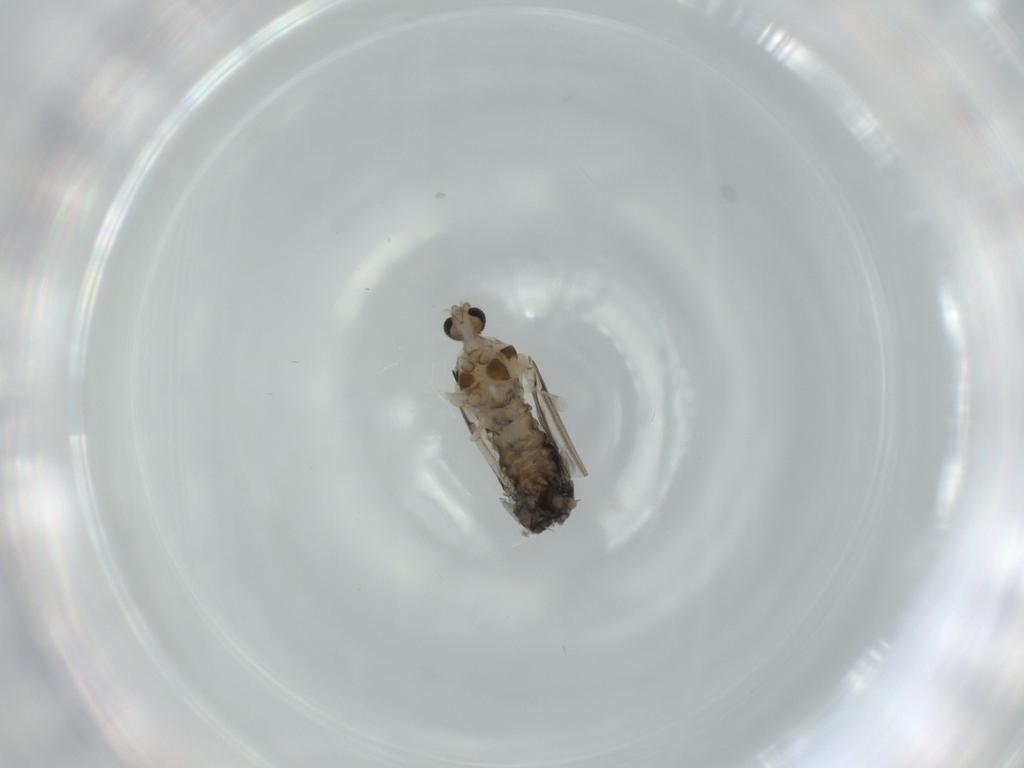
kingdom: Animalia
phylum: Arthropoda
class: Insecta
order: Diptera
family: Cecidomyiidae
